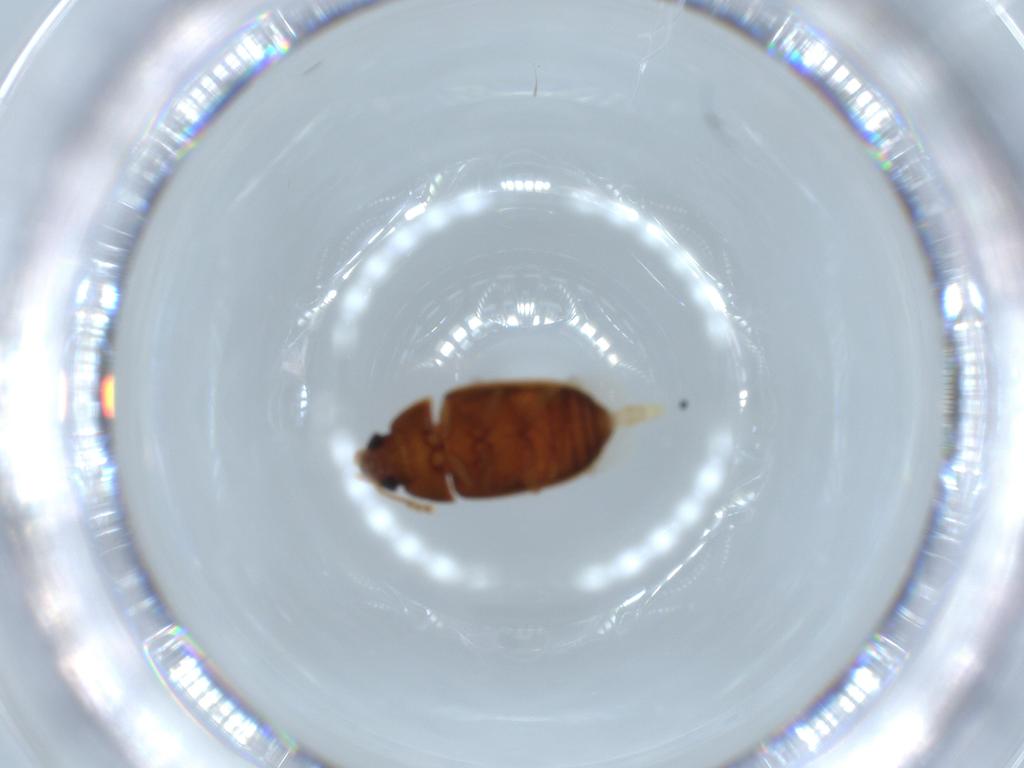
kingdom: Animalia
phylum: Arthropoda
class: Insecta
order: Coleoptera
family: Mycetophagidae
